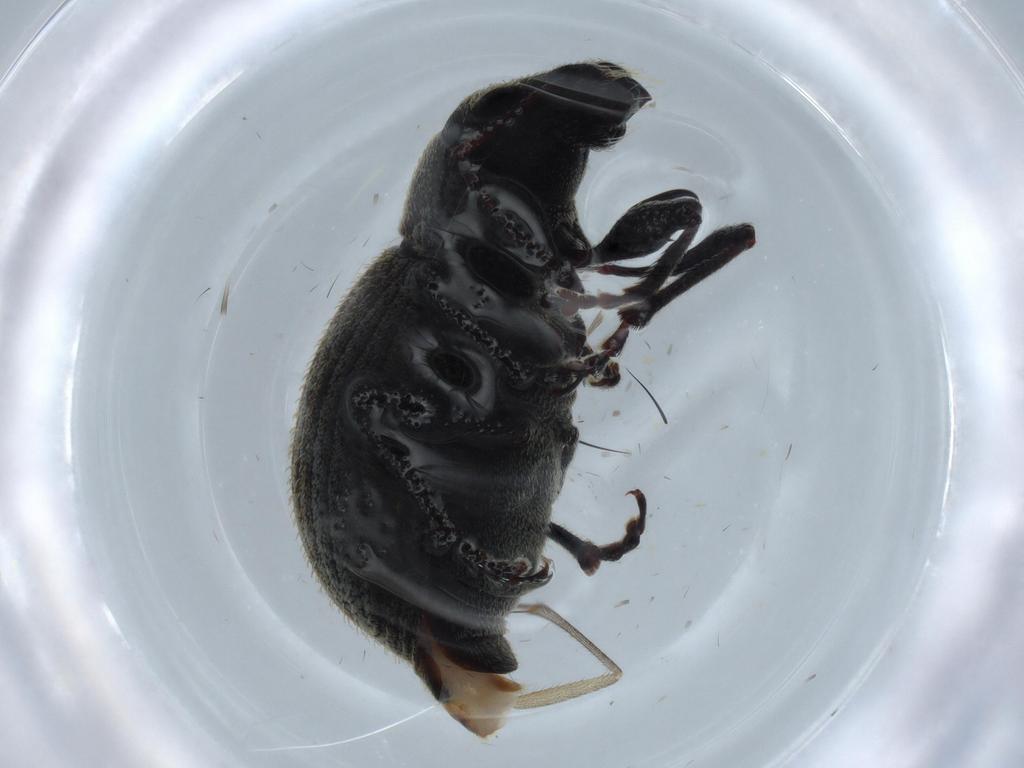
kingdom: Animalia
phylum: Arthropoda
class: Insecta
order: Coleoptera
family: Curculionidae
